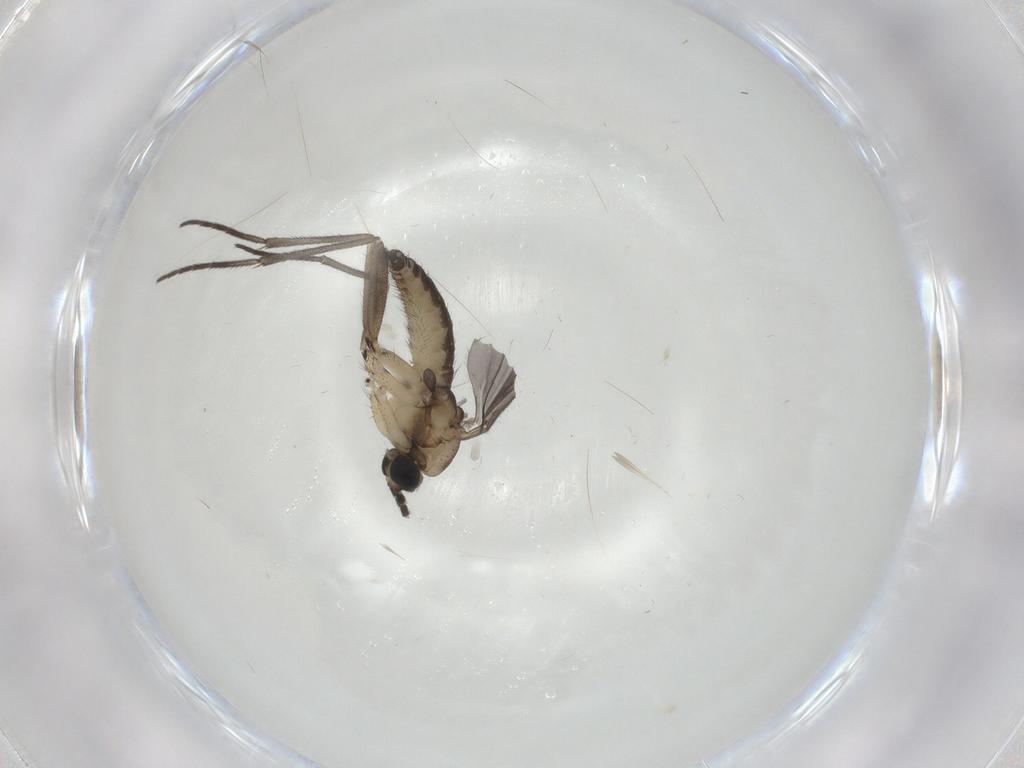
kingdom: Animalia
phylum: Arthropoda
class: Insecta
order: Diptera
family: Sciaridae
